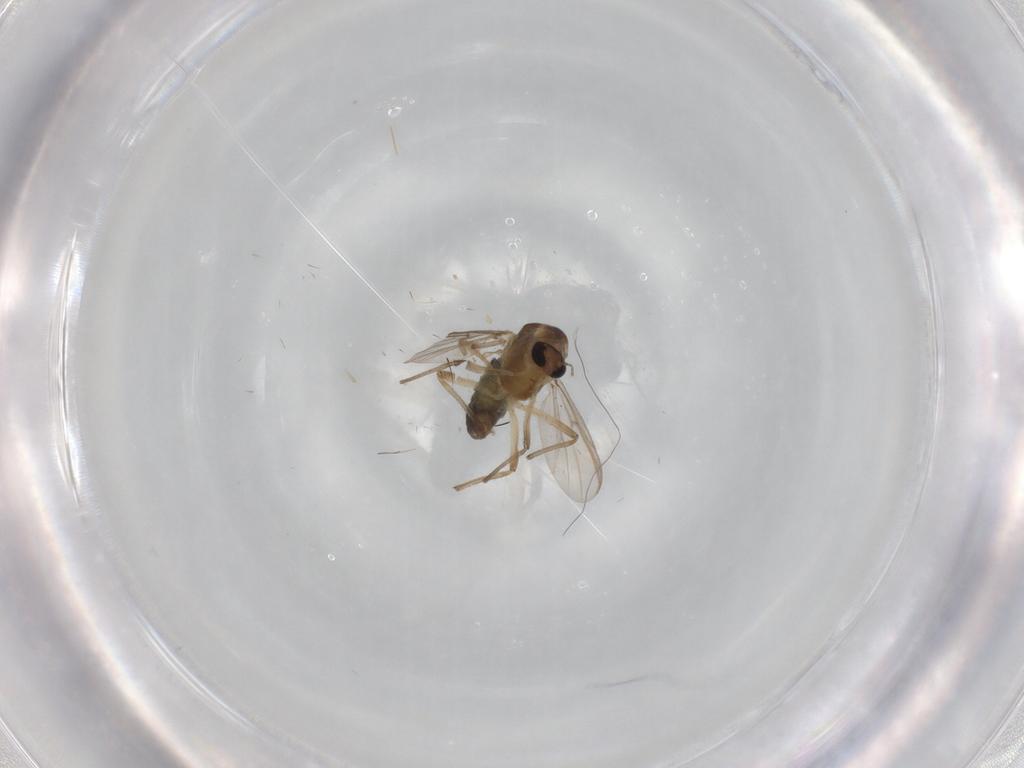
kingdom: Animalia
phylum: Arthropoda
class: Insecta
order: Diptera
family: Chironomidae
